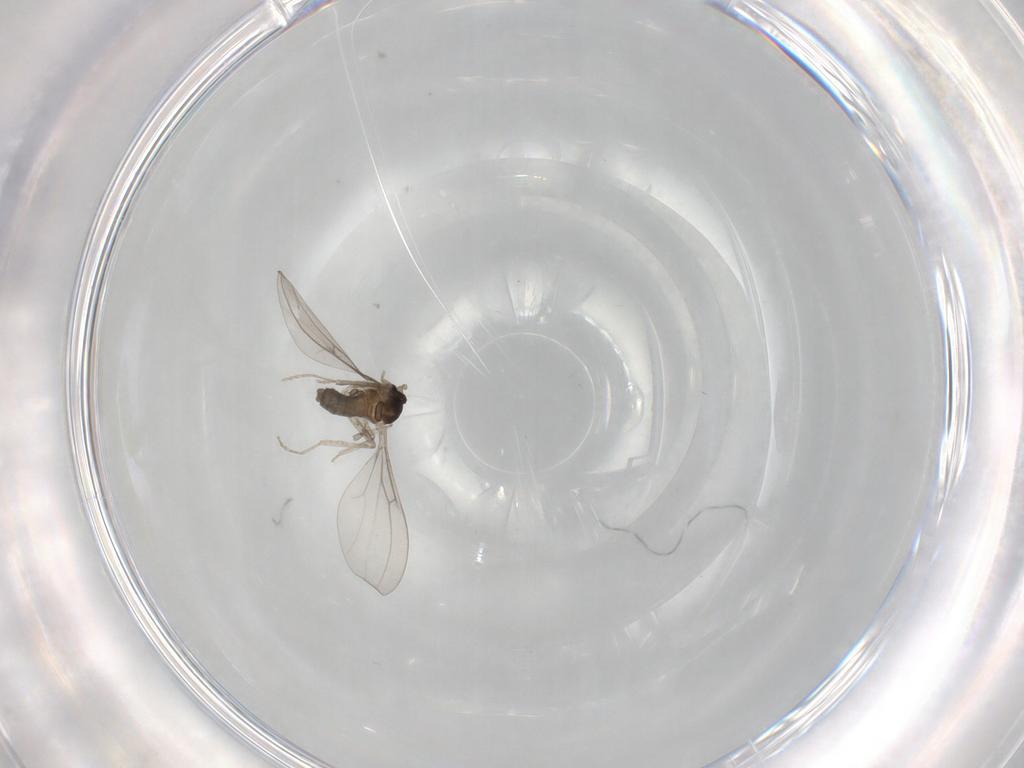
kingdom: Animalia
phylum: Arthropoda
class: Insecta
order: Diptera
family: Cecidomyiidae
